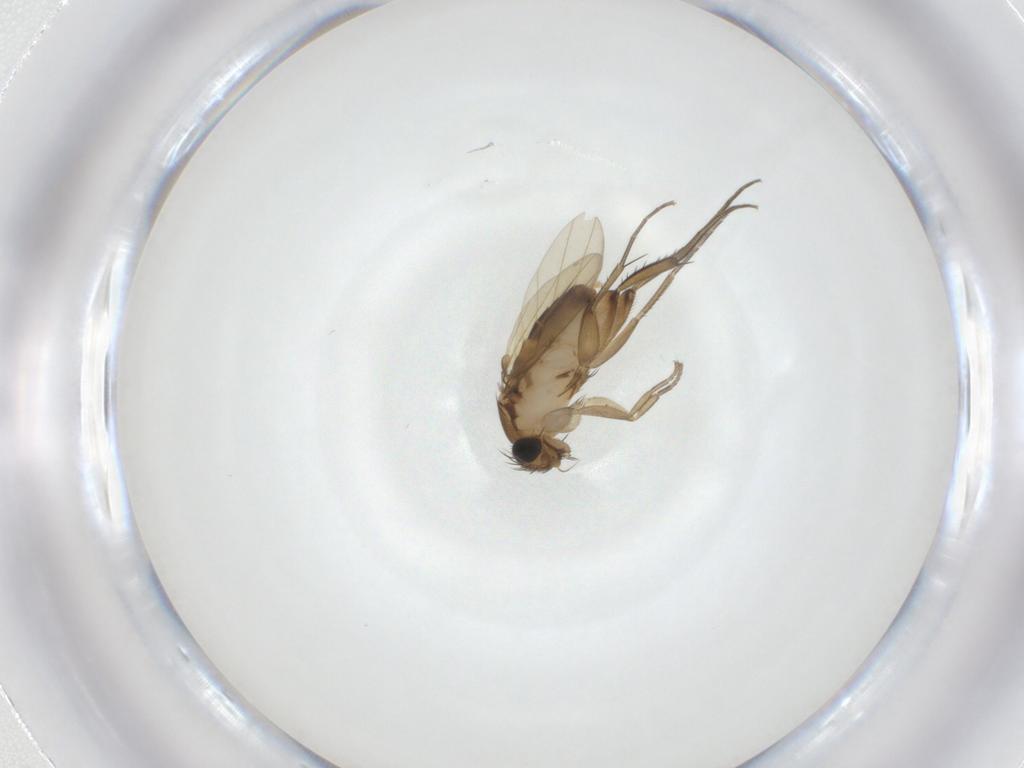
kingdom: Animalia
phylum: Arthropoda
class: Insecta
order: Diptera
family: Phoridae
